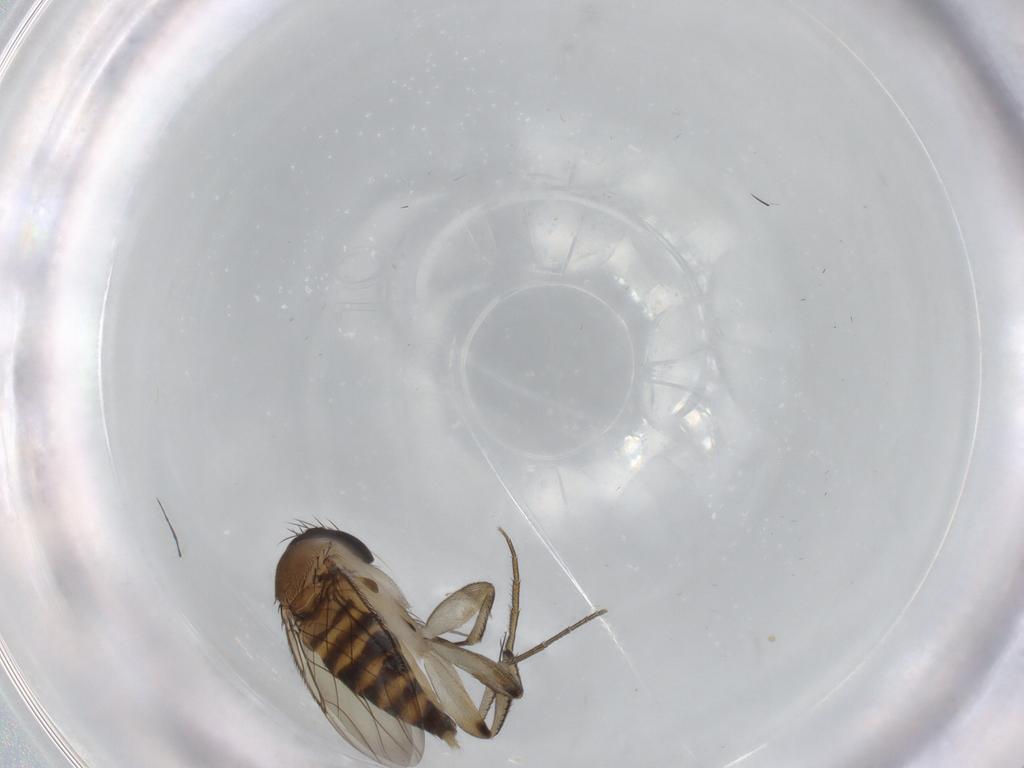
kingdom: Animalia
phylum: Arthropoda
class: Insecta
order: Diptera
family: Phoridae
